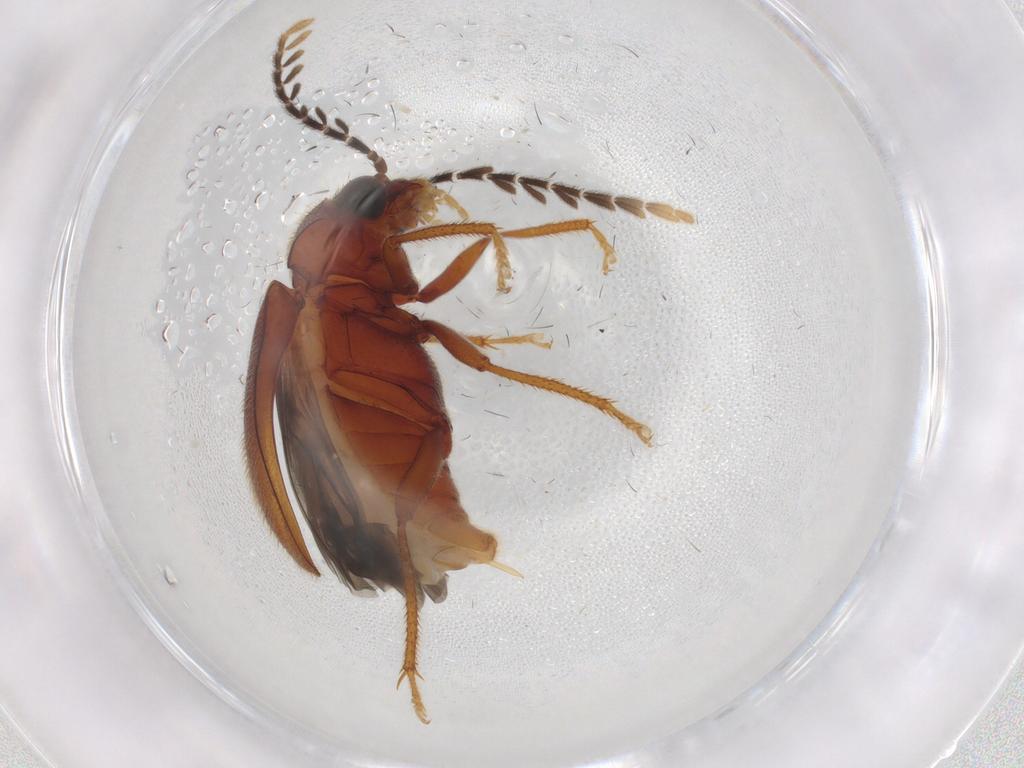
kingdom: Animalia
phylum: Arthropoda
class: Insecta
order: Coleoptera
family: Ptilodactylidae
